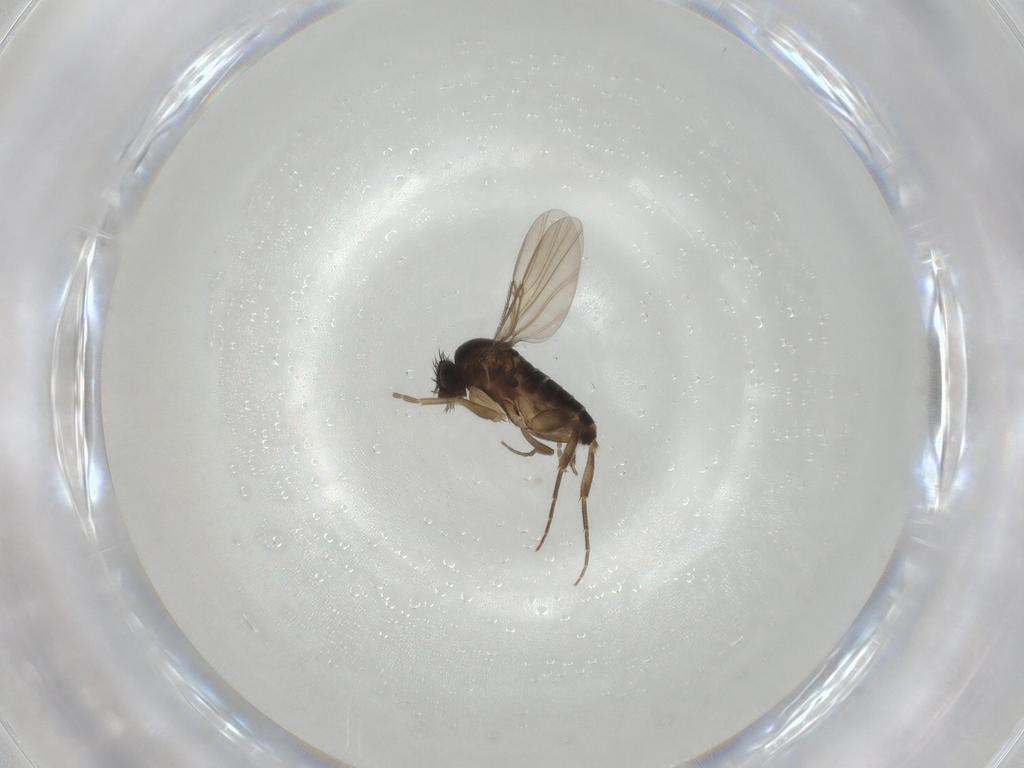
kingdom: Animalia
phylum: Arthropoda
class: Insecta
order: Diptera
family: Phoridae
